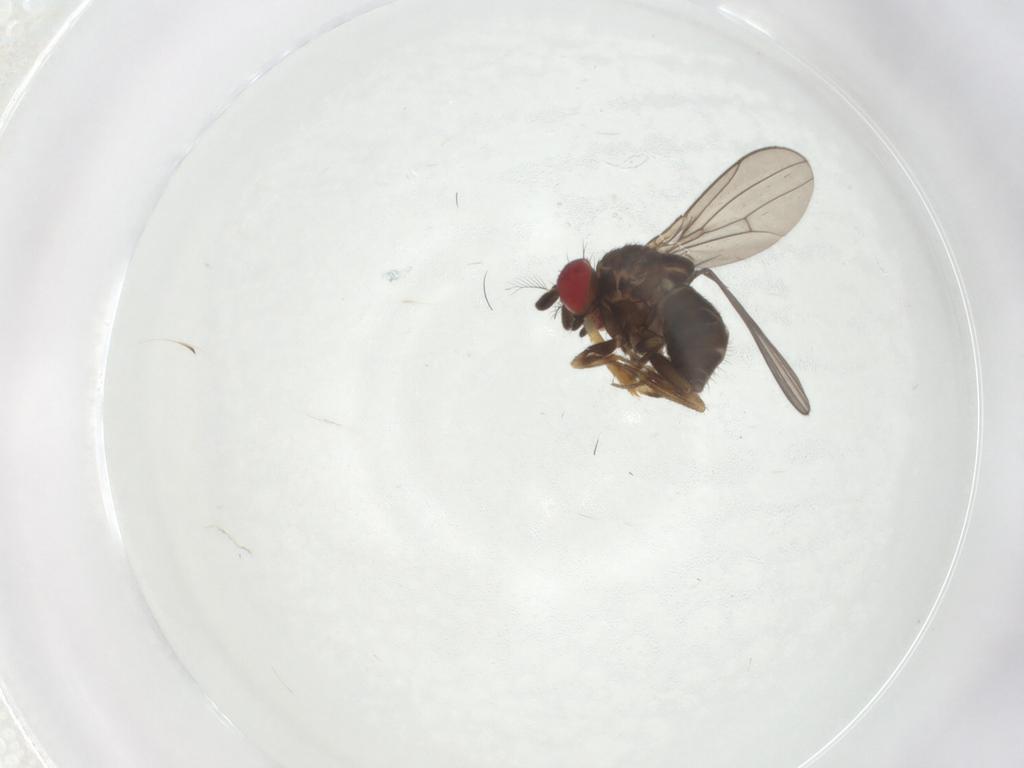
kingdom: Animalia
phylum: Arthropoda
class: Insecta
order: Diptera
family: Drosophilidae
